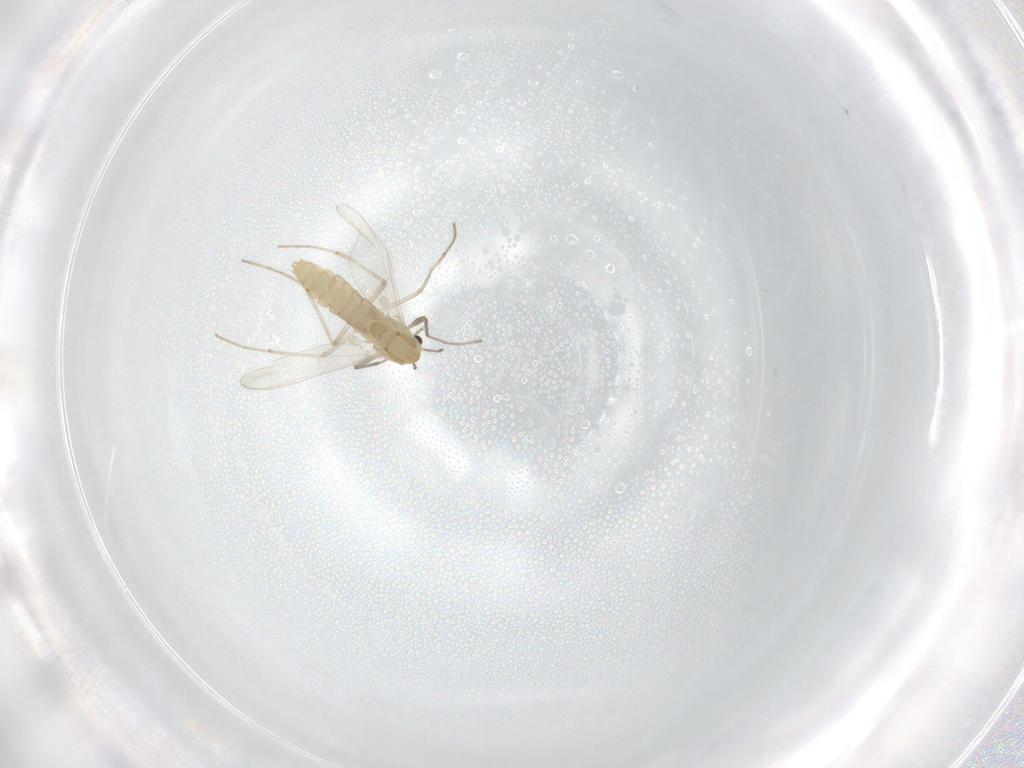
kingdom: Animalia
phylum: Arthropoda
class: Insecta
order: Diptera
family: Chironomidae
